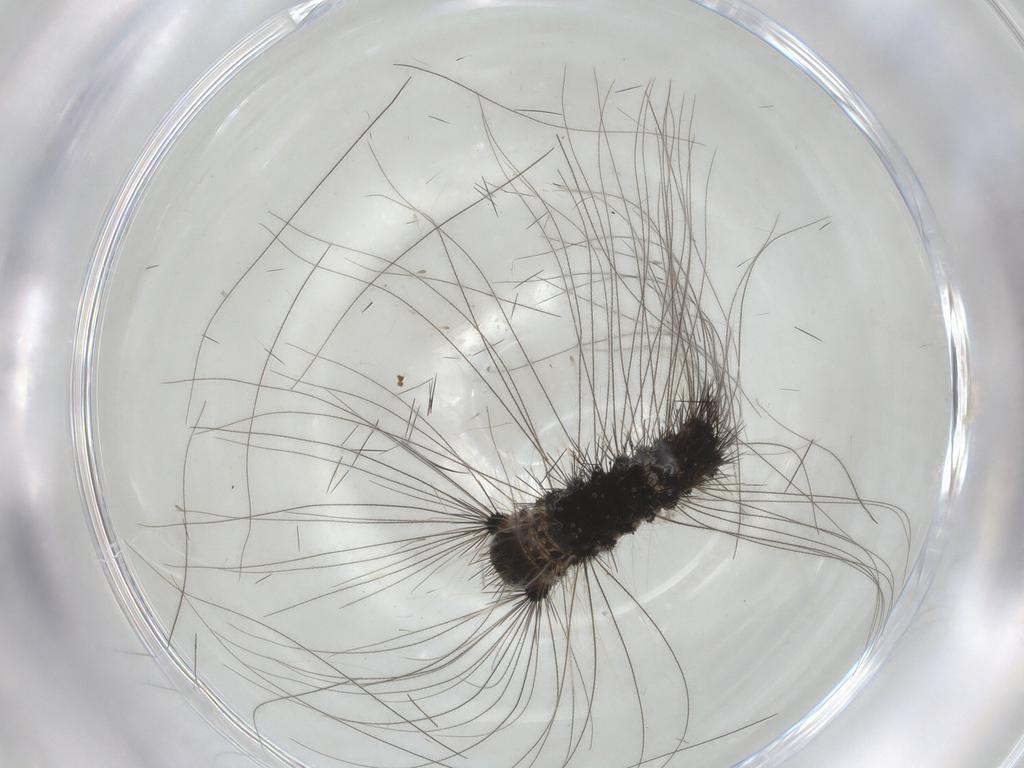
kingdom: Animalia
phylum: Arthropoda
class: Insecta
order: Lepidoptera
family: Erebidae
